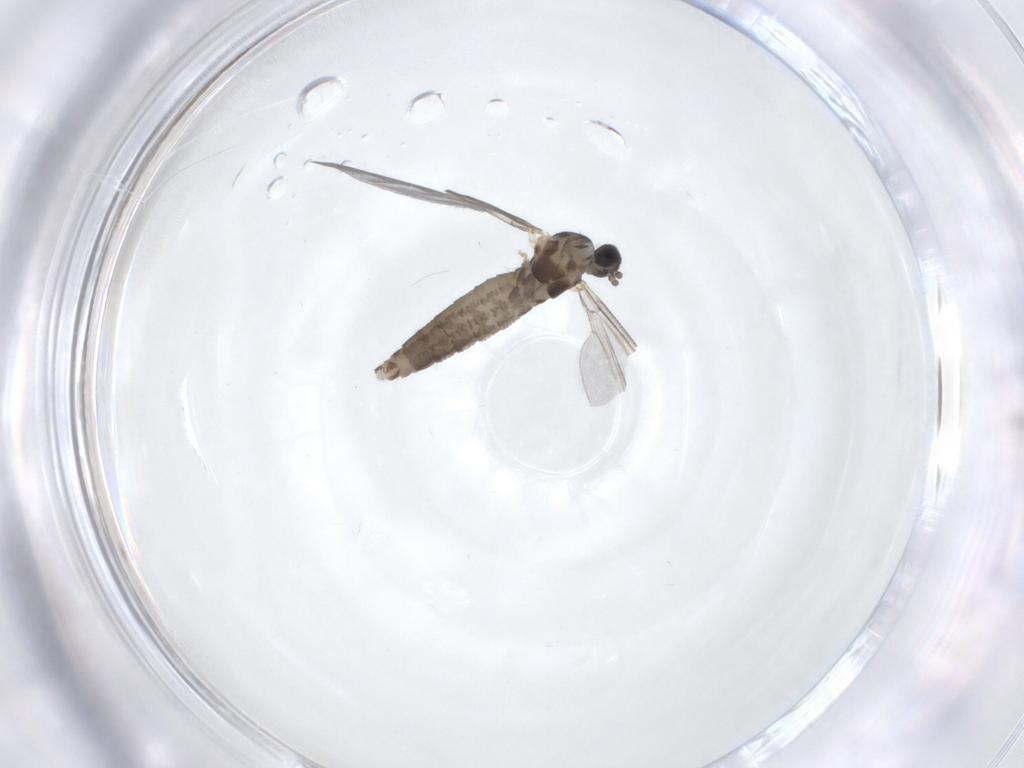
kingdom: Animalia
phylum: Arthropoda
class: Insecta
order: Diptera
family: Cecidomyiidae
